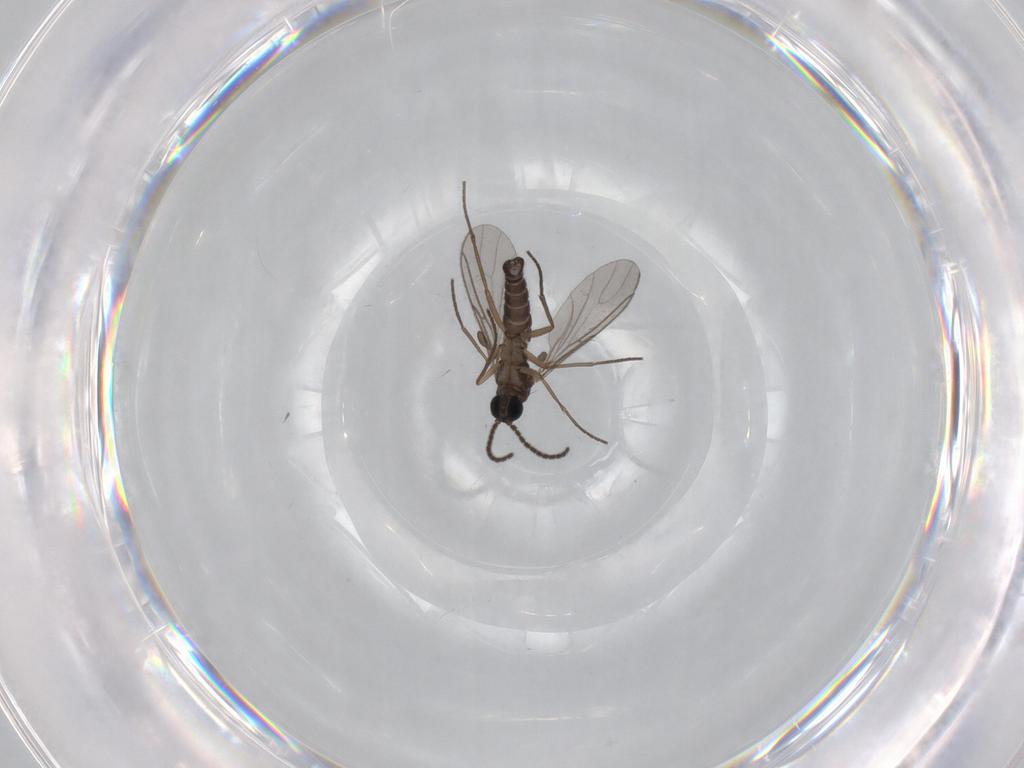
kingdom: Animalia
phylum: Arthropoda
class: Insecta
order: Diptera
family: Sciaridae
